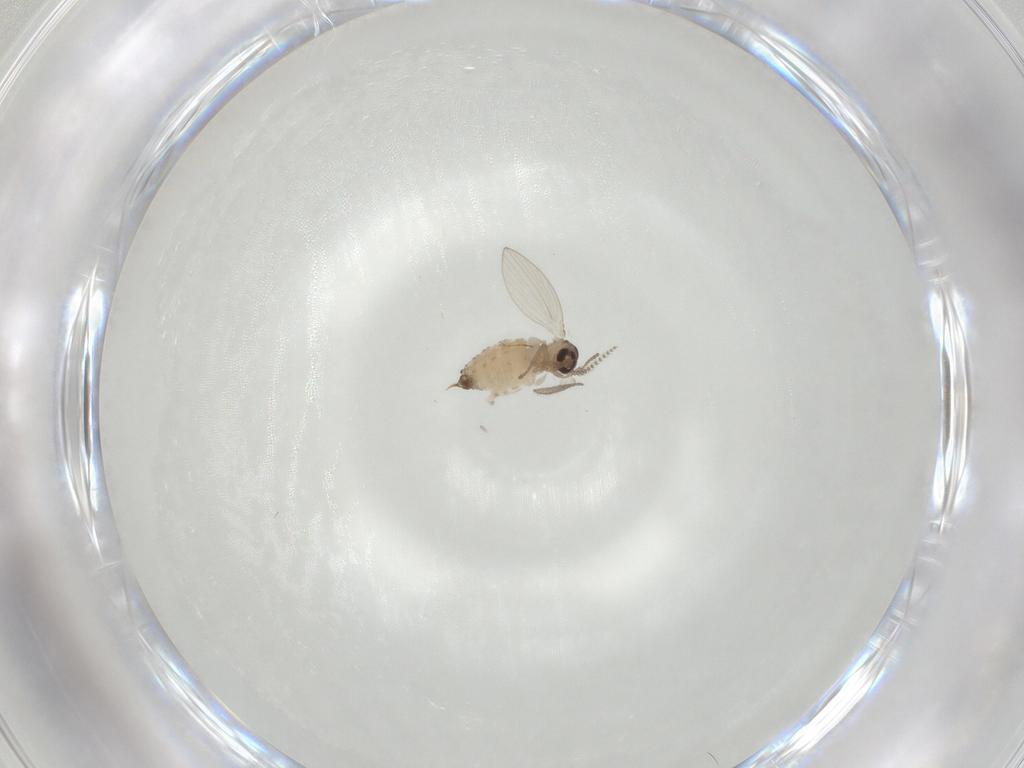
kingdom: Animalia
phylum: Arthropoda
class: Insecta
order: Diptera
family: Psychodidae
